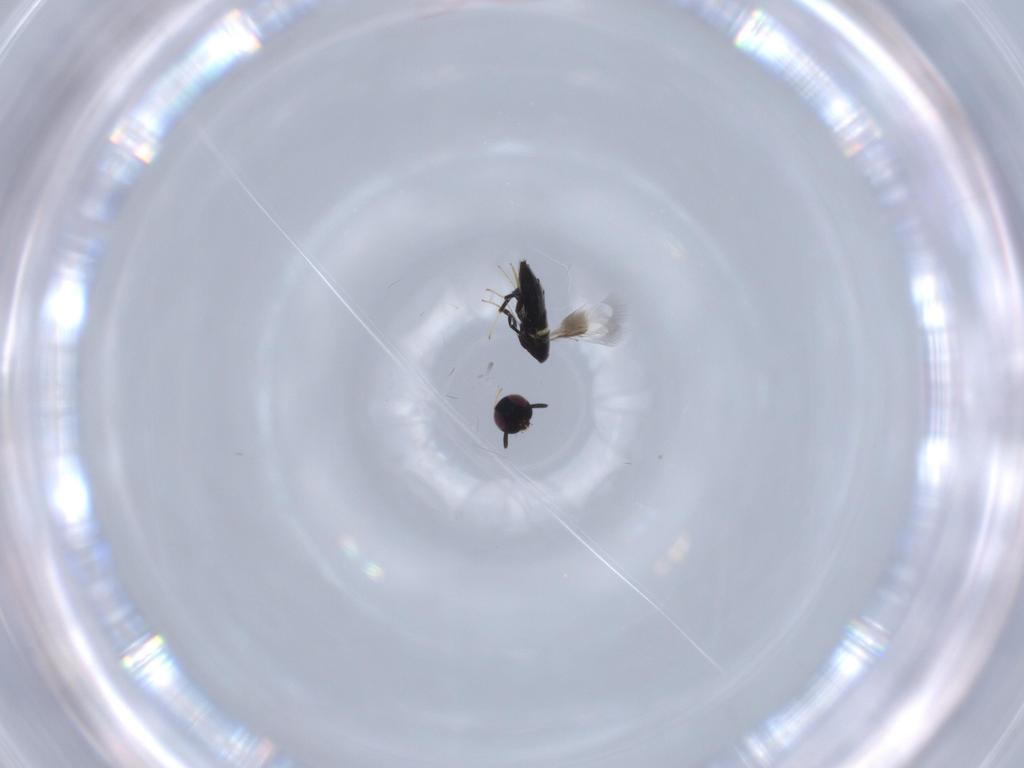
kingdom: Animalia
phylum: Arthropoda
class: Insecta
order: Hymenoptera
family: Signiphoridae
